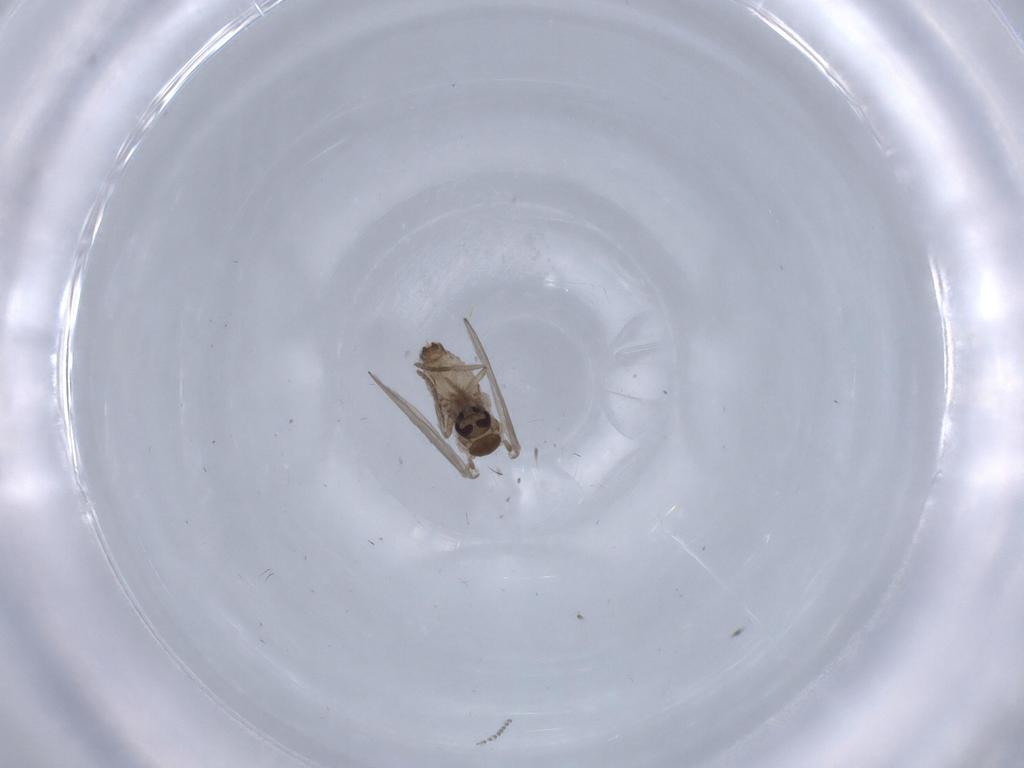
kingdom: Animalia
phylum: Arthropoda
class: Insecta
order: Diptera
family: Psychodidae
